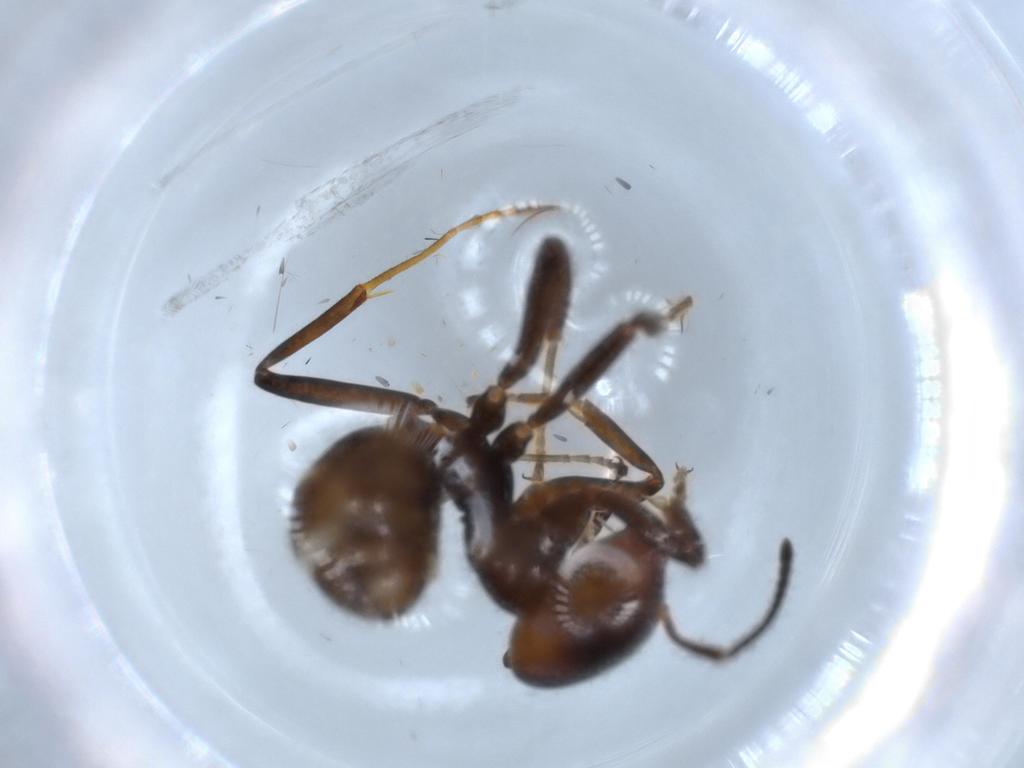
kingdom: Animalia
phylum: Arthropoda
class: Insecta
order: Hymenoptera
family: Formicidae
